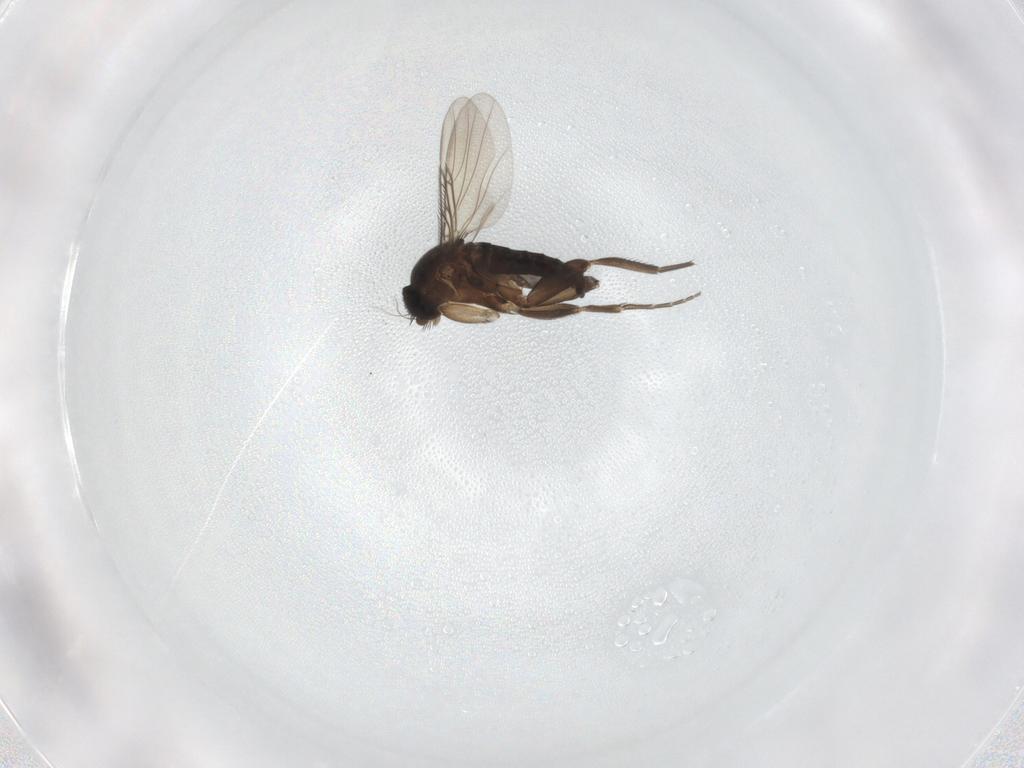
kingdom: Animalia
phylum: Arthropoda
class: Insecta
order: Diptera
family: Phoridae
